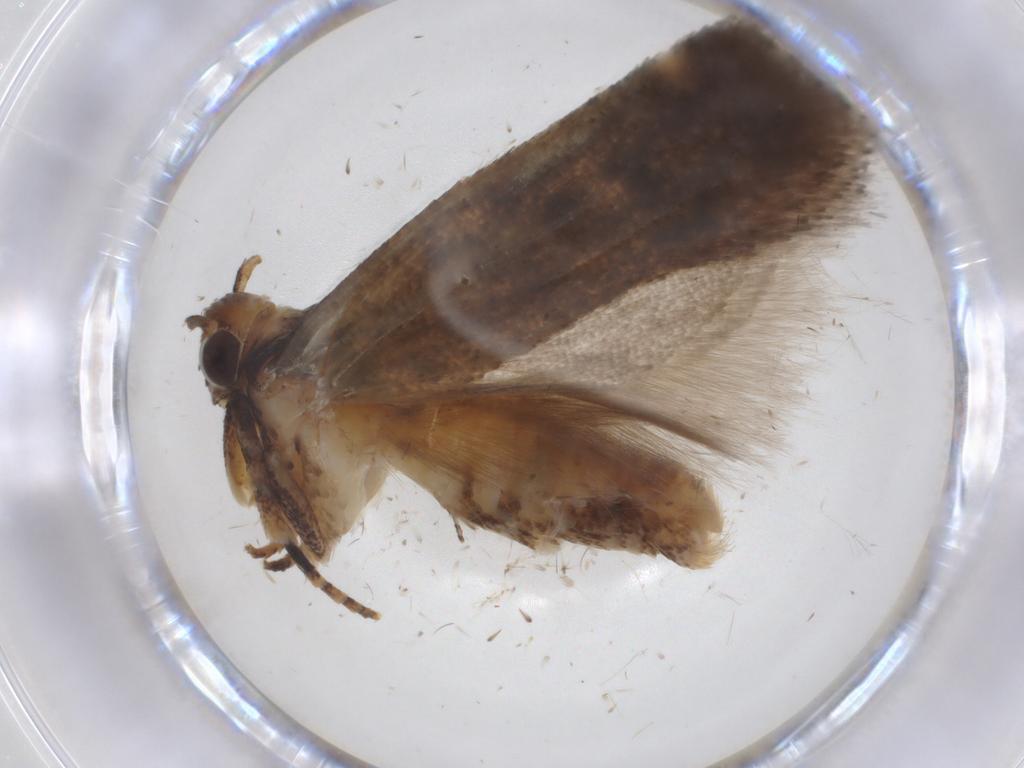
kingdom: Animalia
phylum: Arthropoda
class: Insecta
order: Lepidoptera
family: Gelechiidae
